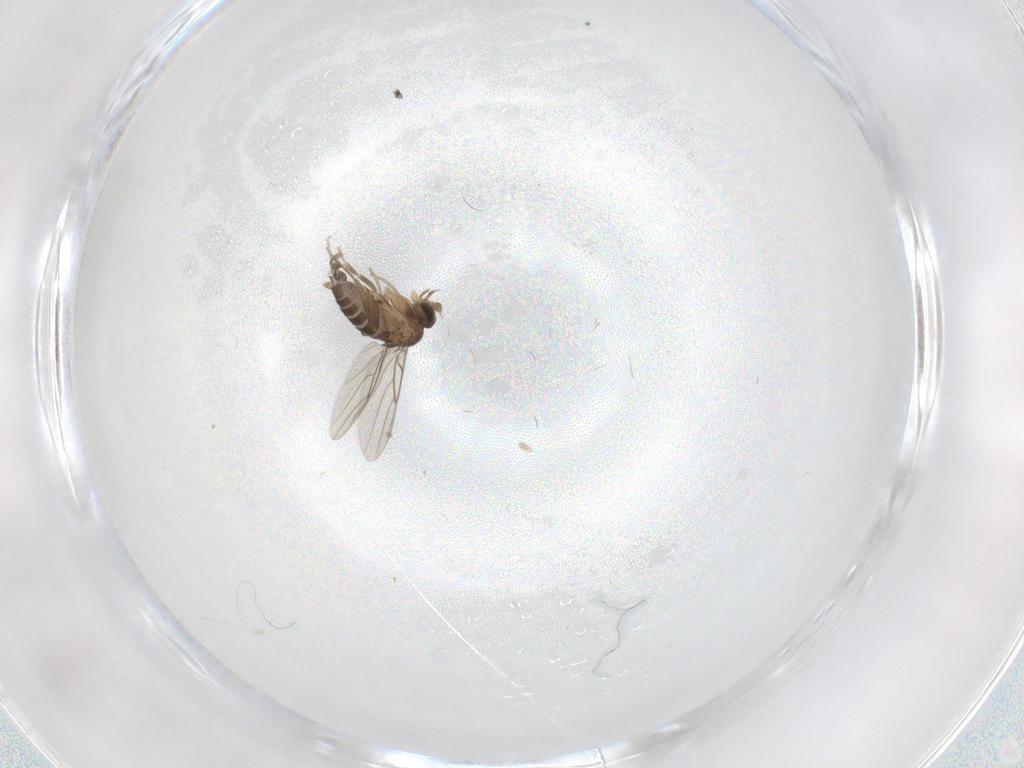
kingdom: Animalia
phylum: Arthropoda
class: Insecta
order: Diptera
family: Phoridae
